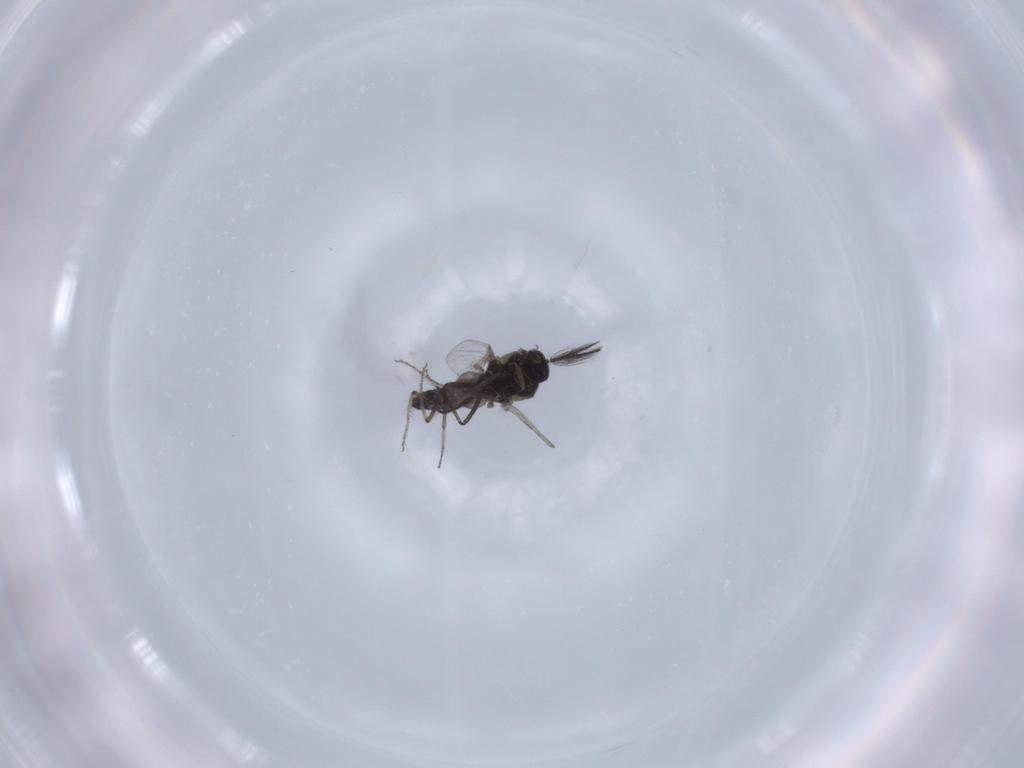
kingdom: Animalia
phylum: Arthropoda
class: Insecta
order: Diptera
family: Ceratopogonidae
